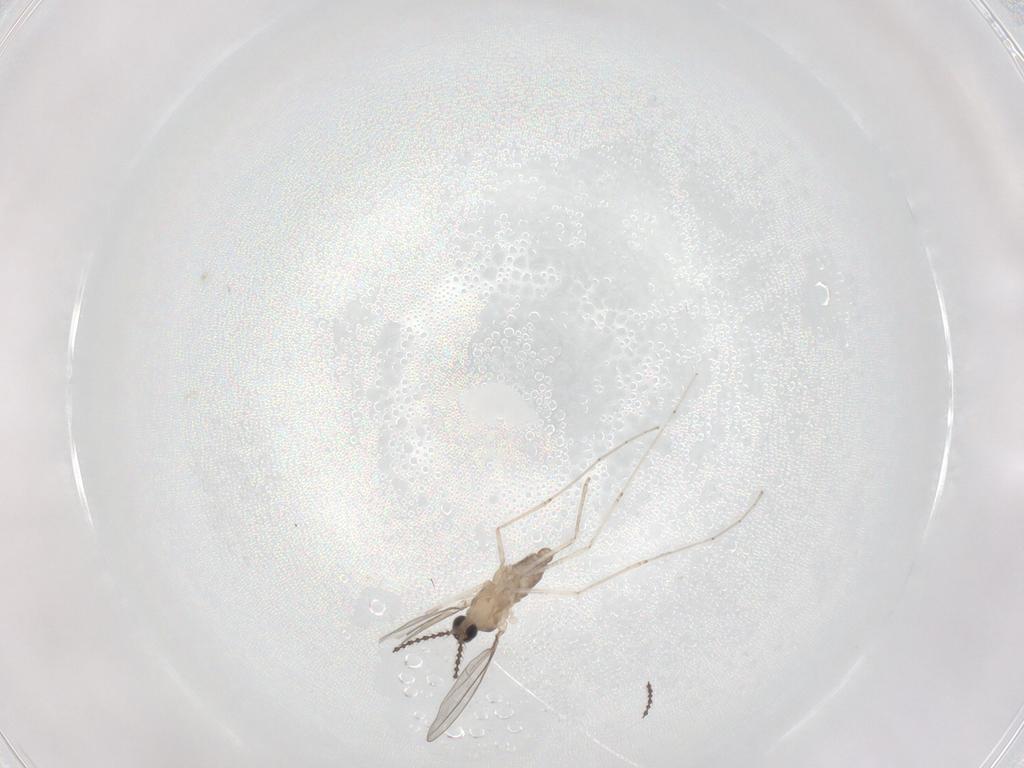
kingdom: Animalia
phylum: Arthropoda
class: Insecta
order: Diptera
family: Cecidomyiidae
